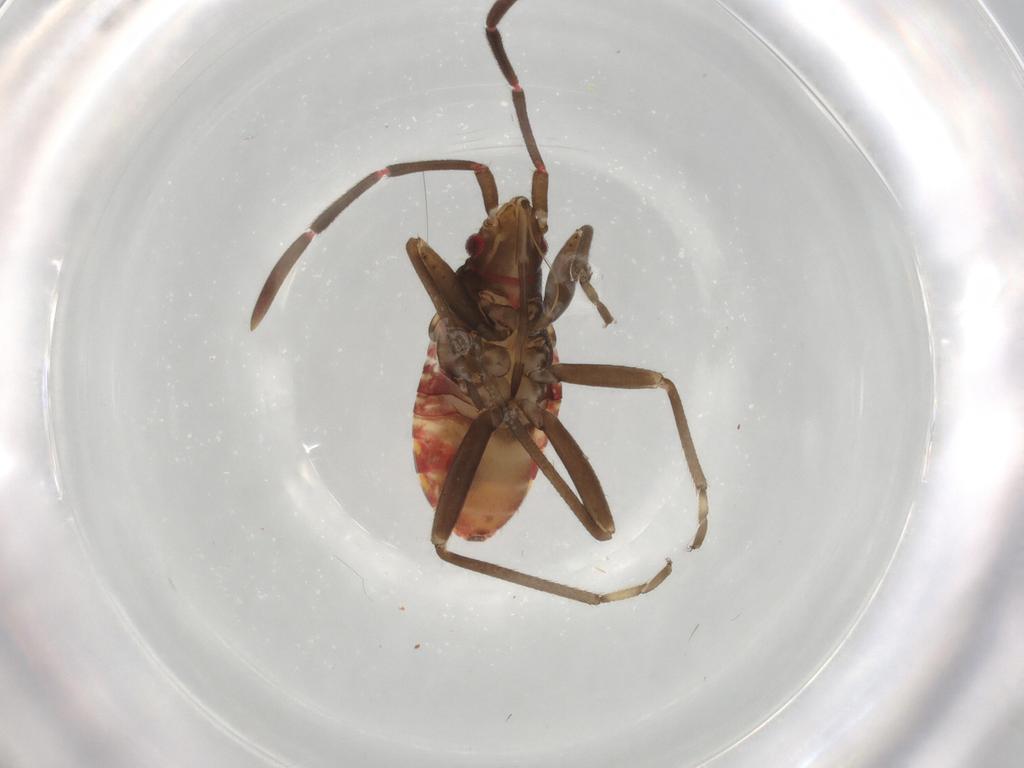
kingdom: Animalia
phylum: Arthropoda
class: Insecta
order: Hemiptera
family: Rhyparochromidae
